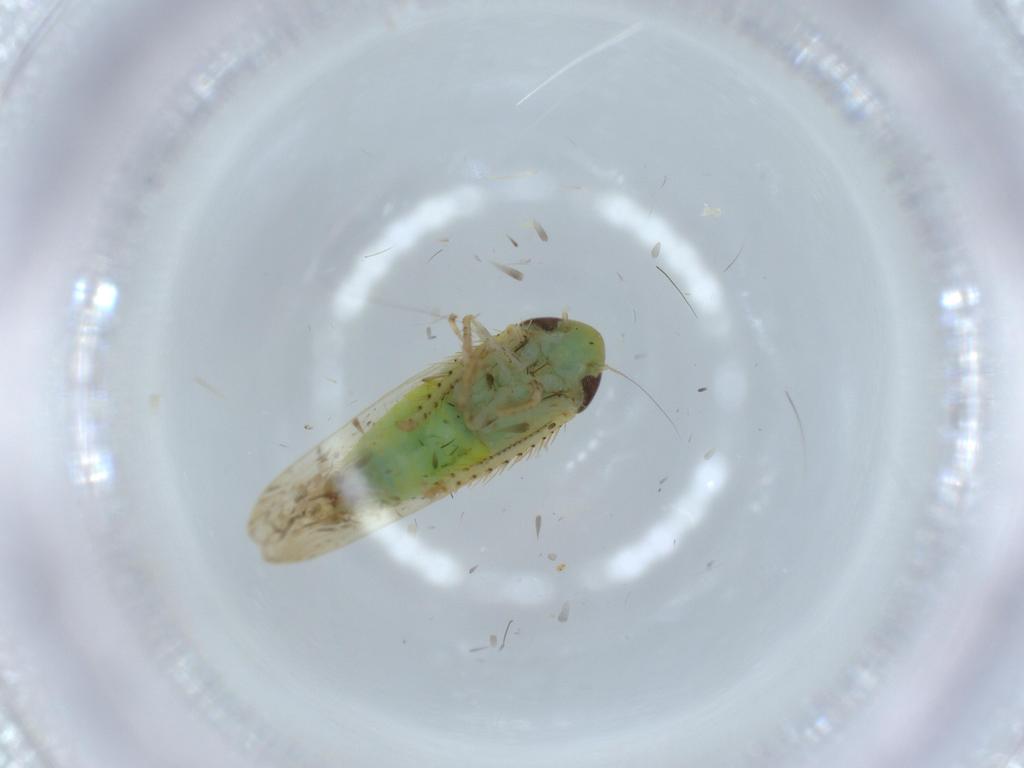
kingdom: Animalia
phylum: Arthropoda
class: Insecta
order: Hemiptera
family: Cicadellidae
